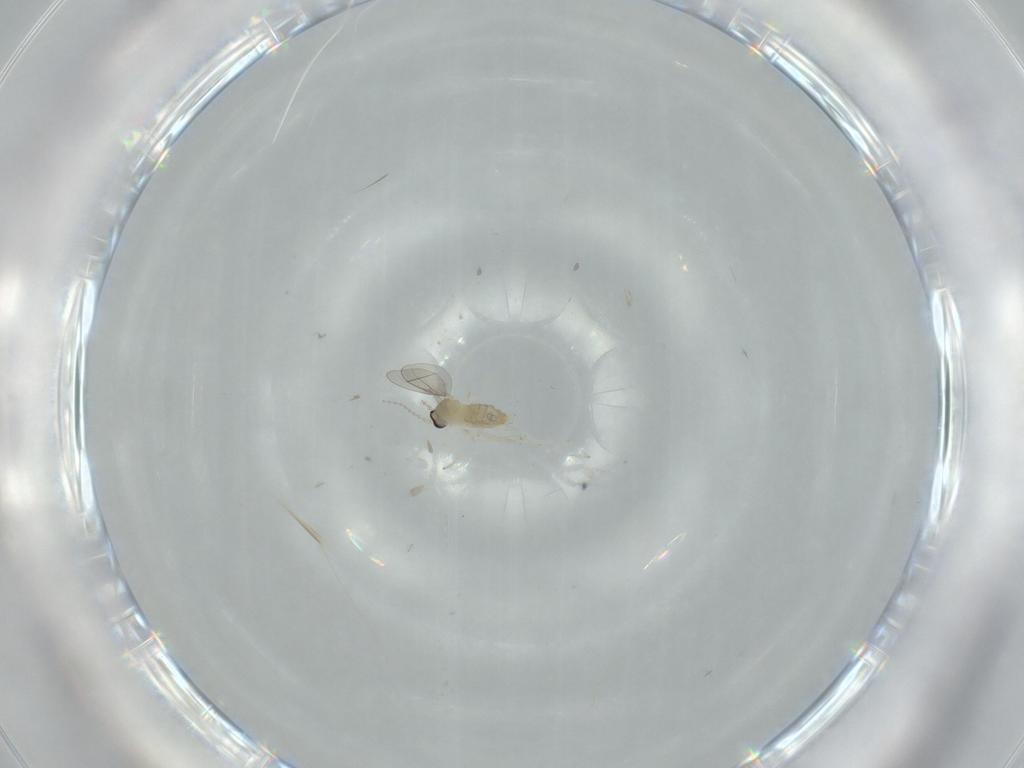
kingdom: Animalia
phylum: Arthropoda
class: Insecta
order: Diptera
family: Cecidomyiidae
